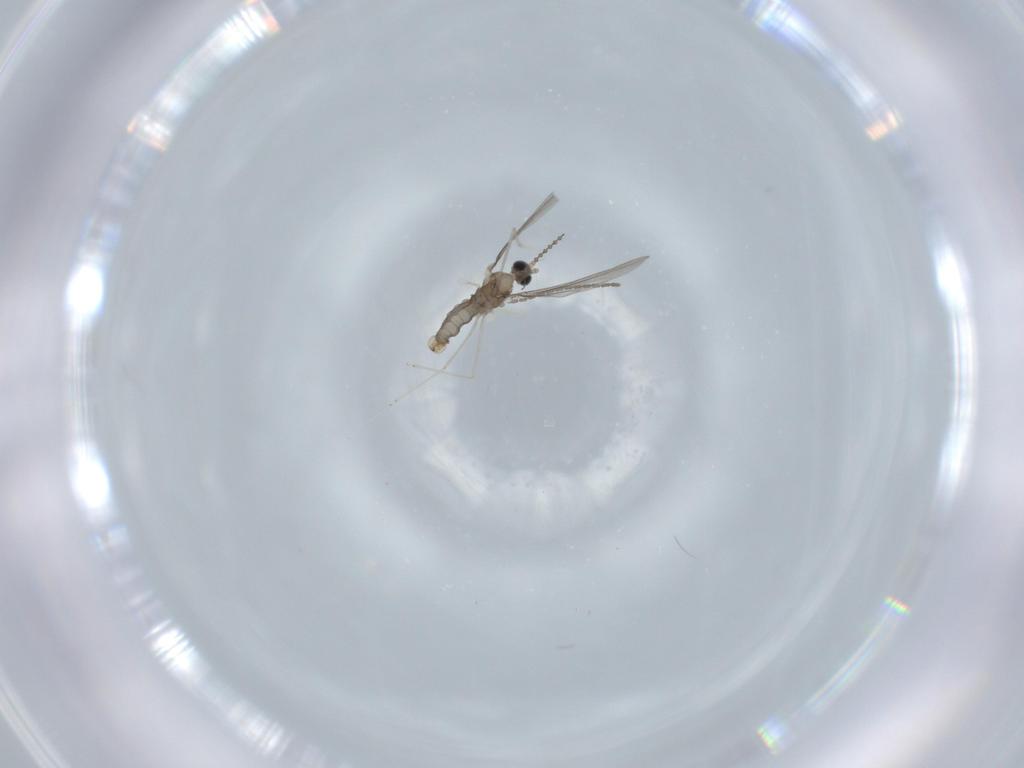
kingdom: Animalia
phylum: Arthropoda
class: Insecta
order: Diptera
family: Cecidomyiidae
